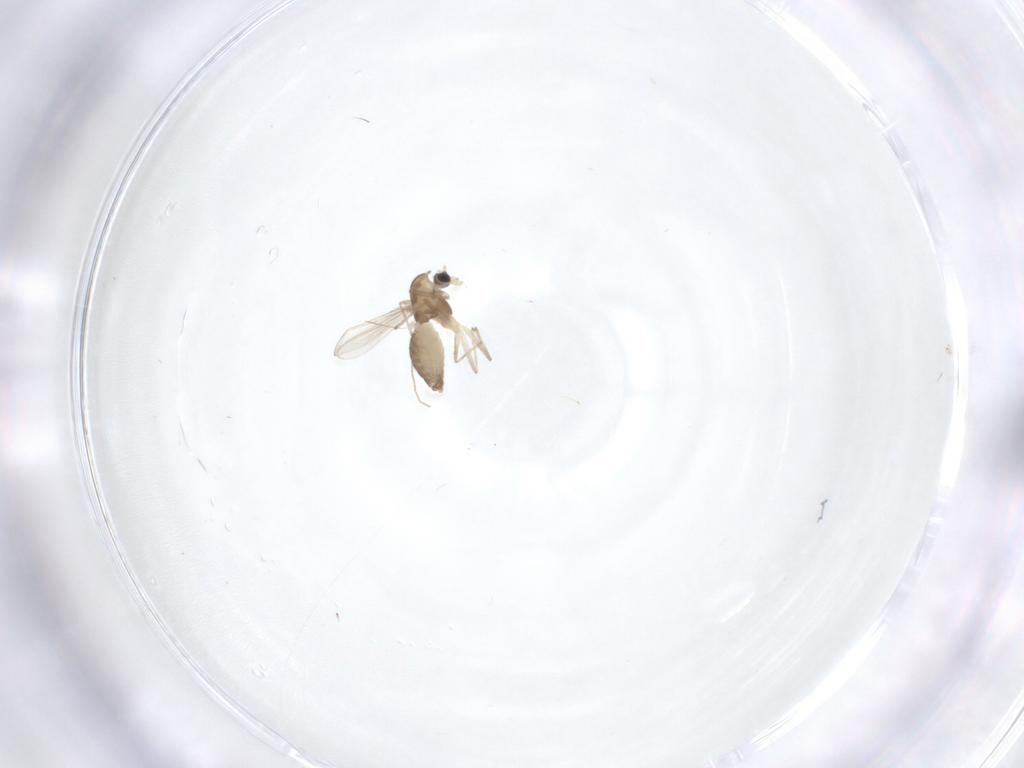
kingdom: Animalia
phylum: Arthropoda
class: Insecta
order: Diptera
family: Chironomidae
